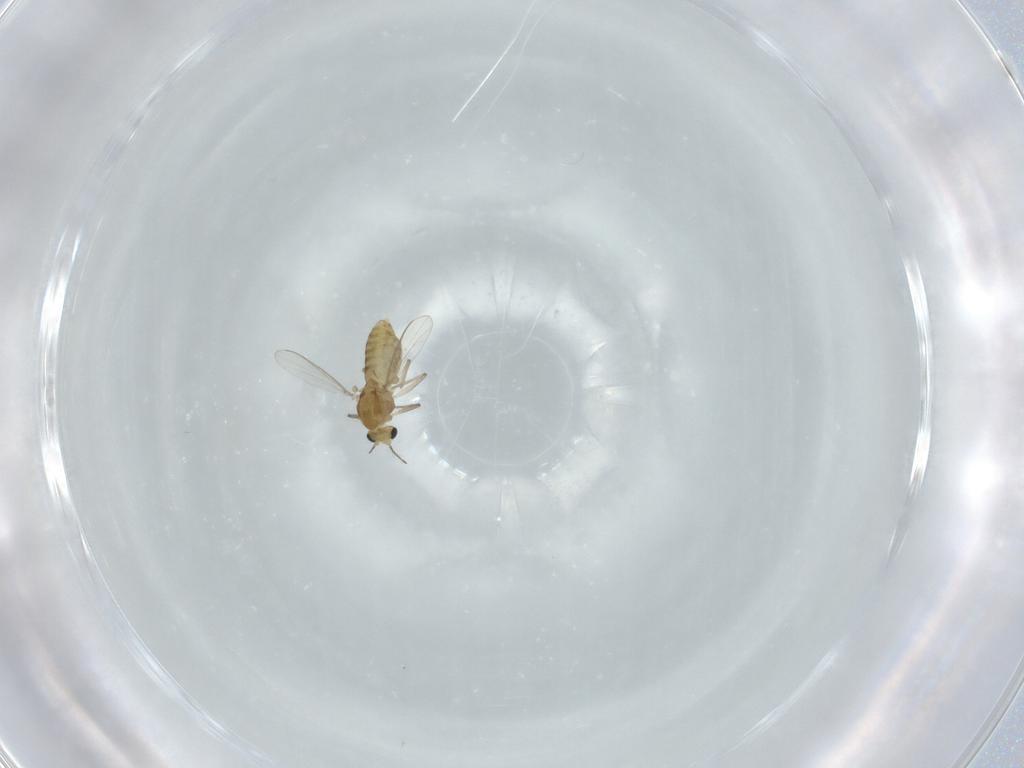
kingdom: Animalia
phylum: Arthropoda
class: Insecta
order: Diptera
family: Chironomidae
